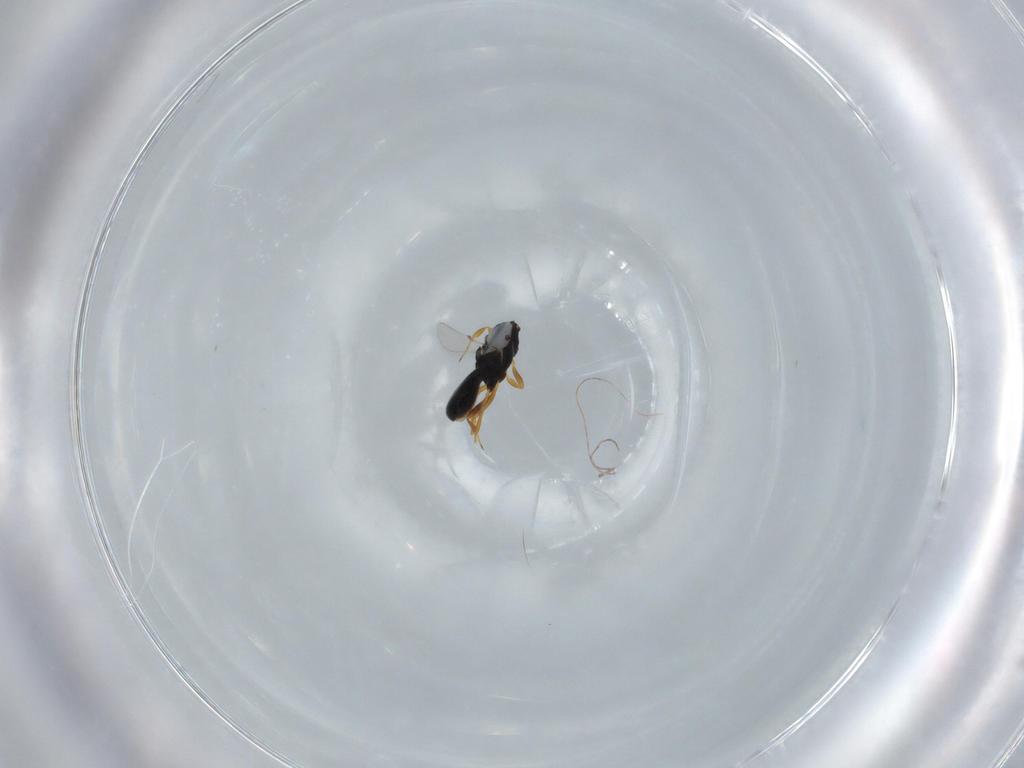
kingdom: Animalia
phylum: Arthropoda
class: Insecta
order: Hymenoptera
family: Scelionidae
